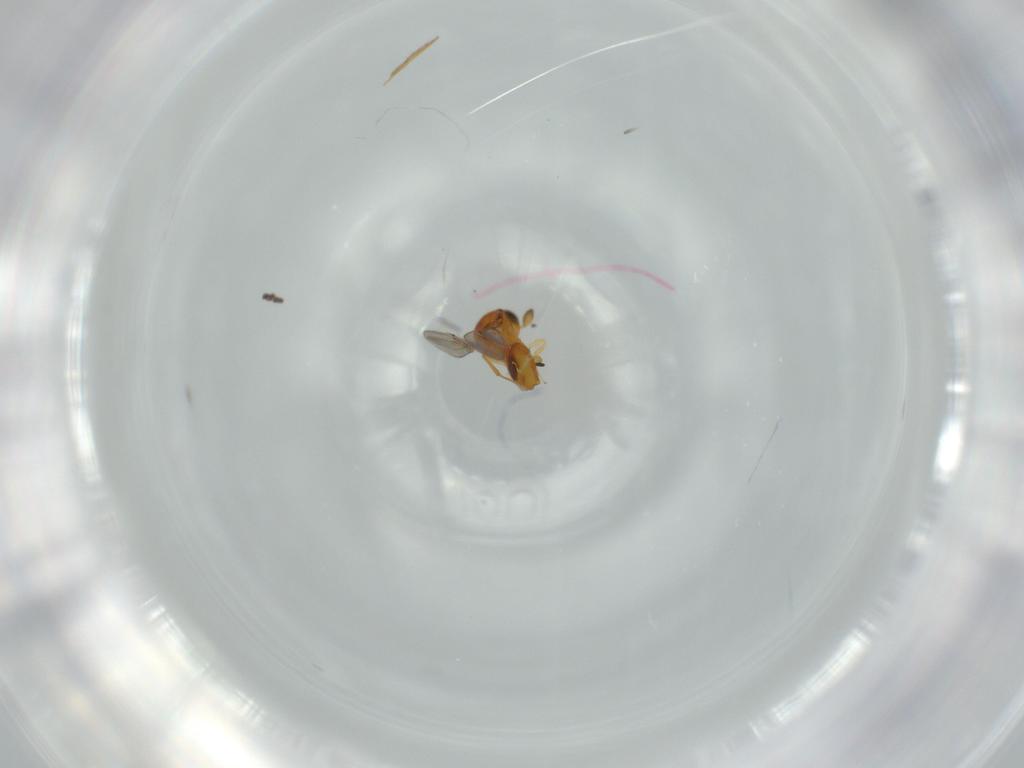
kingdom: Animalia
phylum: Arthropoda
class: Insecta
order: Hymenoptera
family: Scelionidae
